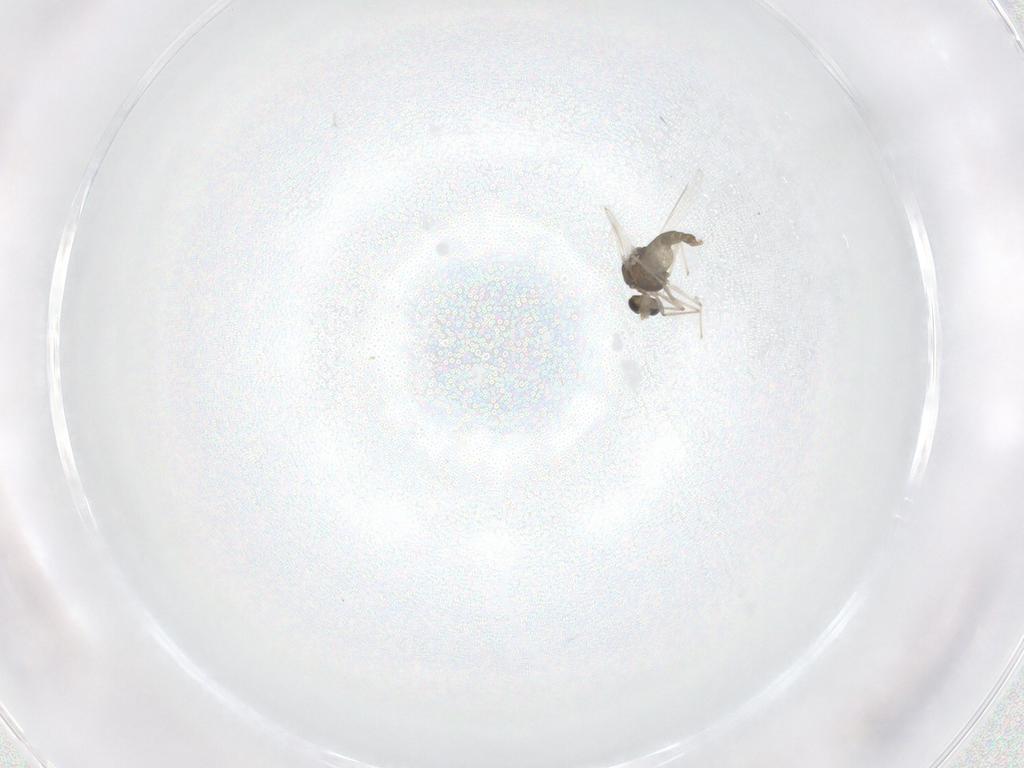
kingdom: Animalia
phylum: Arthropoda
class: Insecta
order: Diptera
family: Chironomidae
